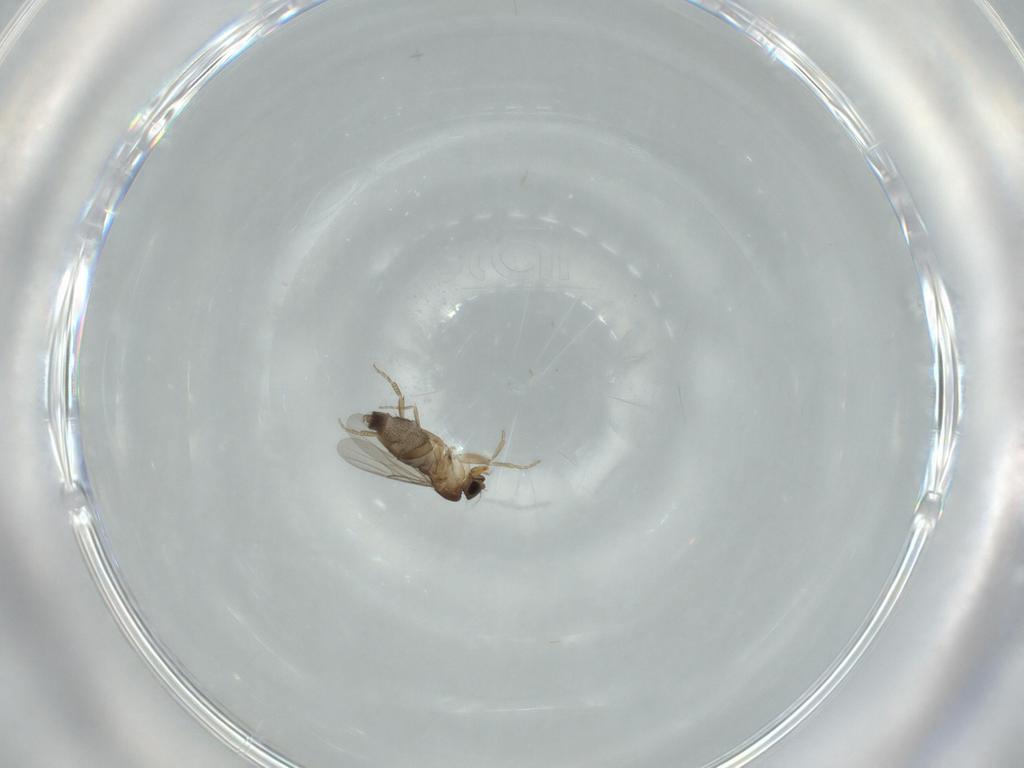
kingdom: Animalia
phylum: Arthropoda
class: Insecta
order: Diptera
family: Phoridae
